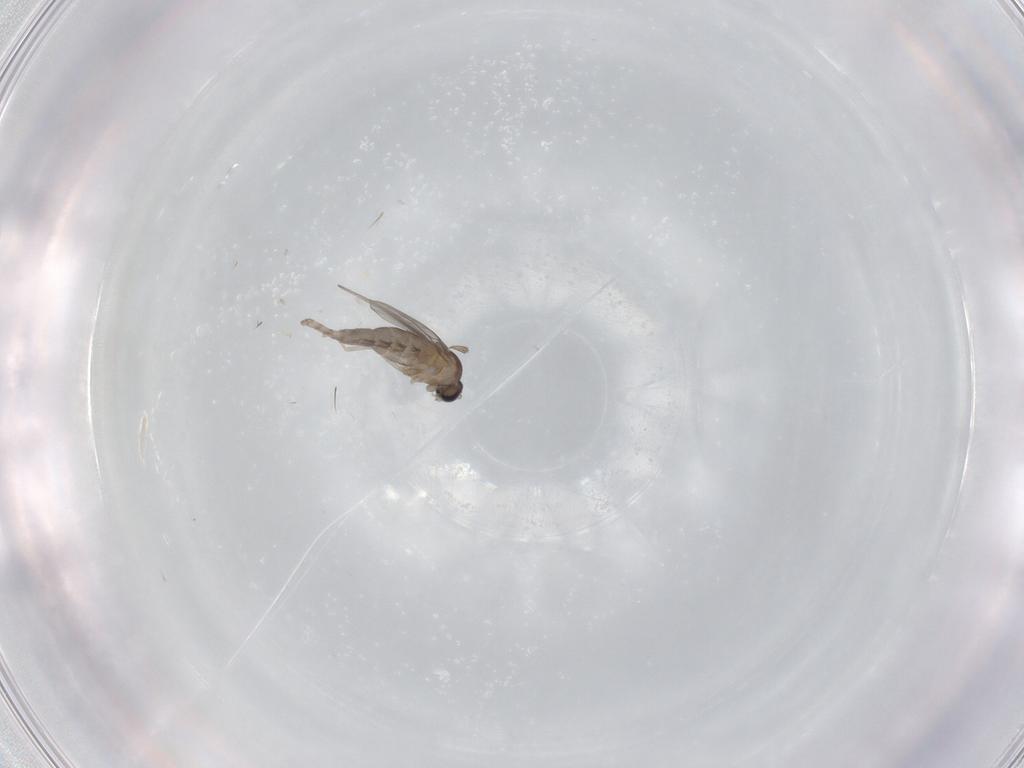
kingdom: Animalia
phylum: Arthropoda
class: Insecta
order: Diptera
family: Cecidomyiidae
